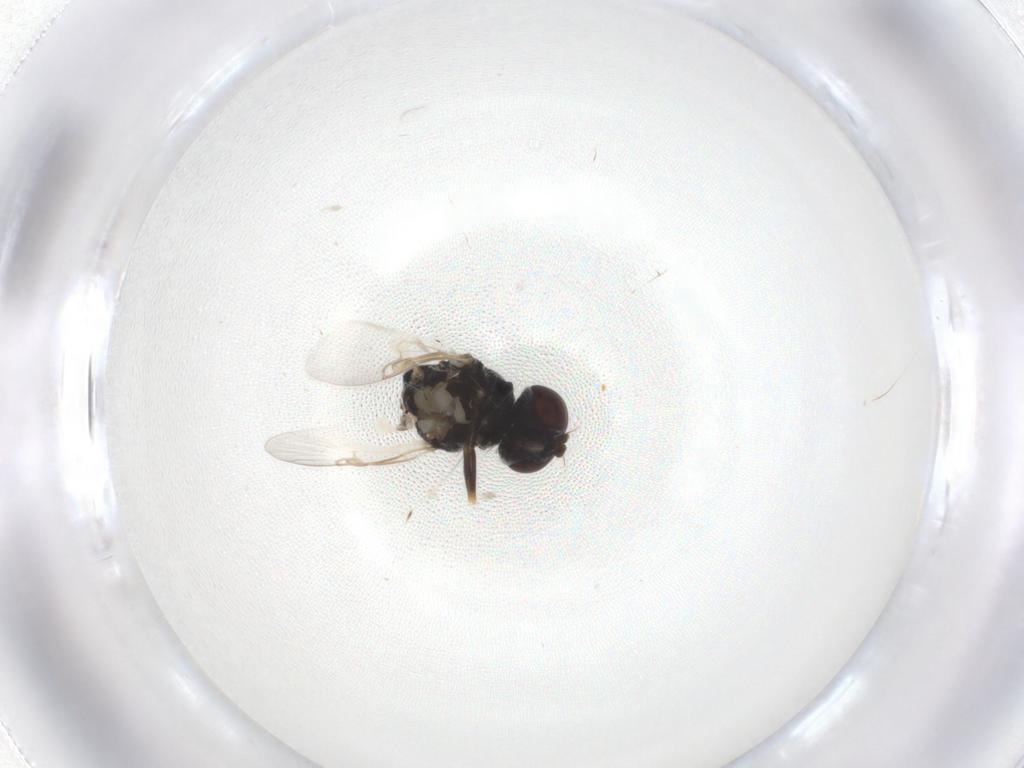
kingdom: Animalia
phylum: Arthropoda
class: Insecta
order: Diptera
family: Stratiomyidae
